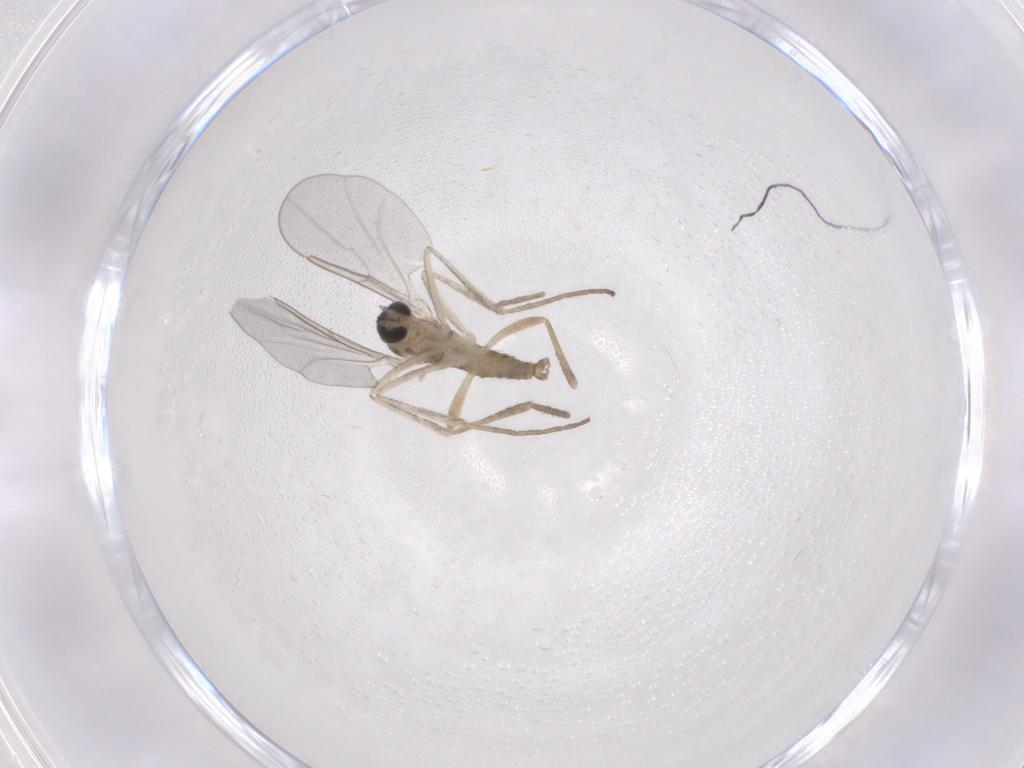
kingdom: Animalia
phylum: Arthropoda
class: Insecta
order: Diptera
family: Cecidomyiidae
